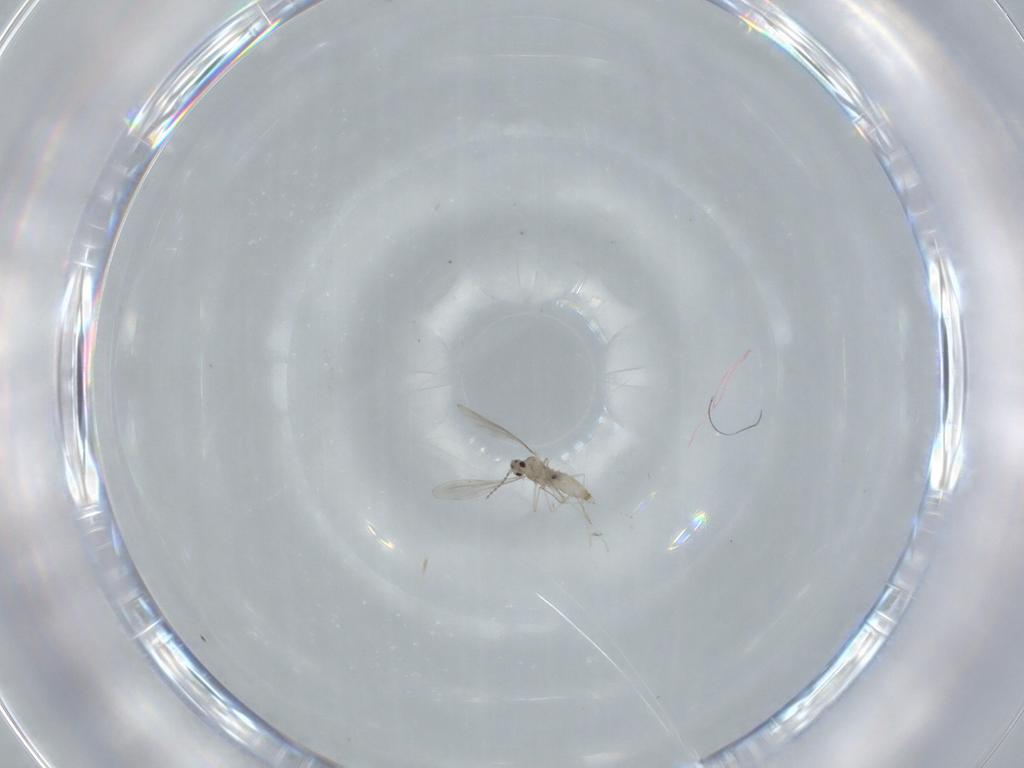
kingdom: Animalia
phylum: Arthropoda
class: Insecta
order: Diptera
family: Cecidomyiidae
